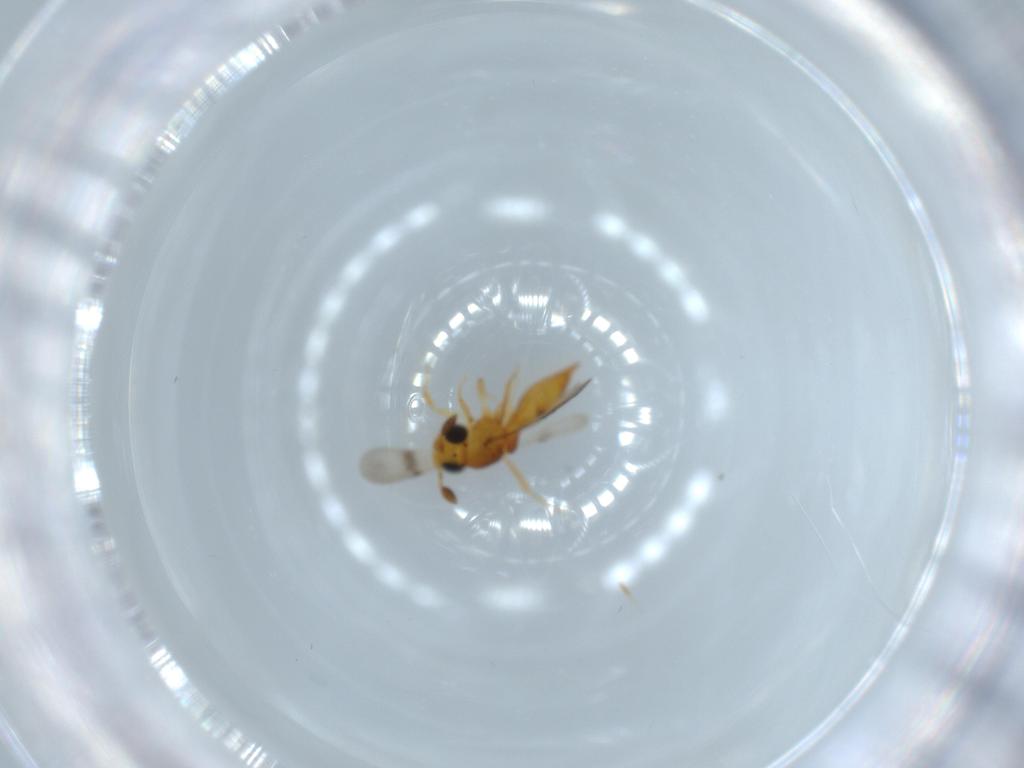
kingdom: Animalia
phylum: Arthropoda
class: Insecta
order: Hymenoptera
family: Scelionidae
